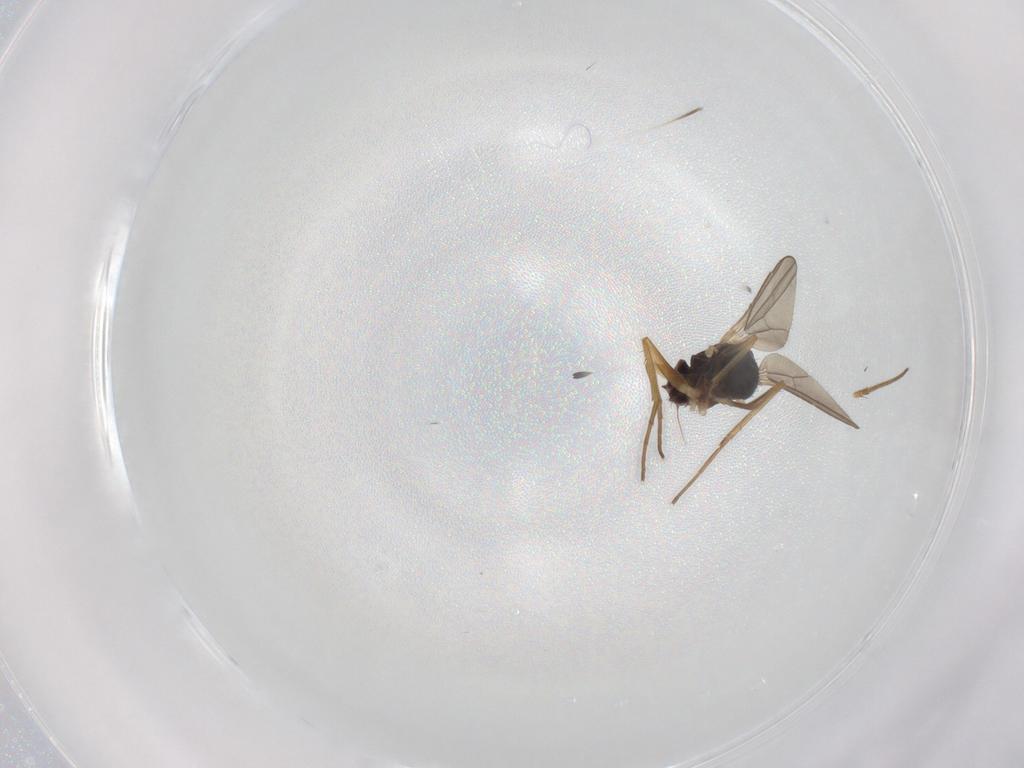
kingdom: Animalia
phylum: Arthropoda
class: Insecta
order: Diptera
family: Dolichopodidae
